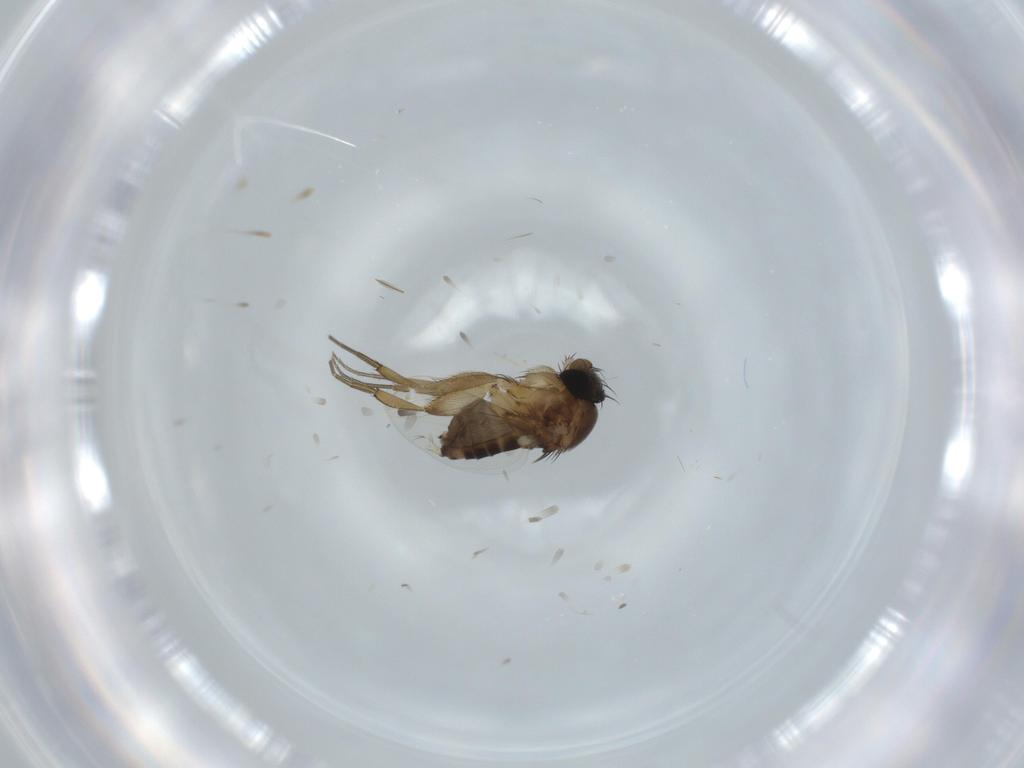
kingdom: Animalia
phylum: Arthropoda
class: Insecta
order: Diptera
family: Phoridae
